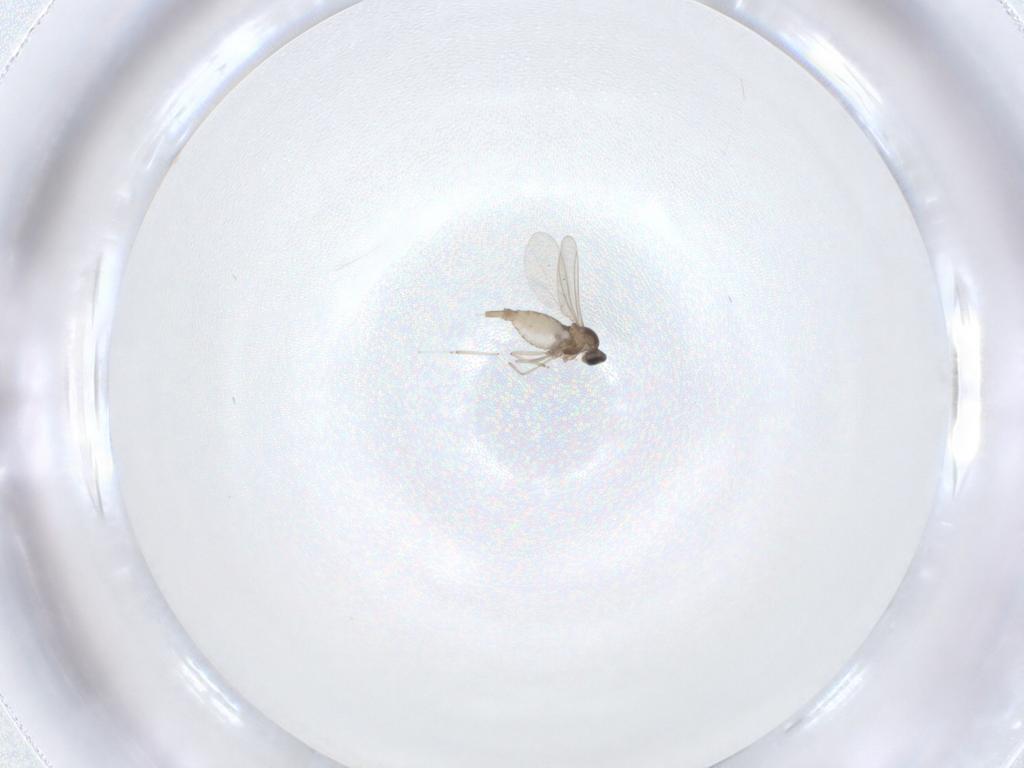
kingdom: Animalia
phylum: Arthropoda
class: Insecta
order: Diptera
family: Cecidomyiidae
